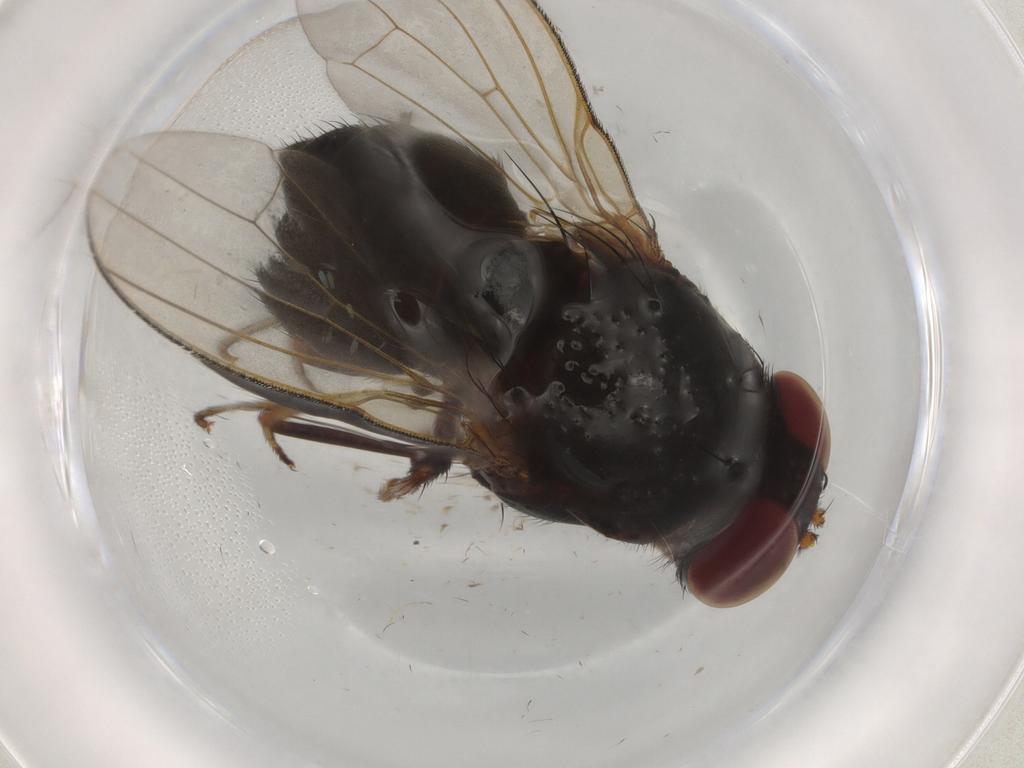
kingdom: Animalia
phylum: Arthropoda
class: Insecta
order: Diptera
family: Muscidae
